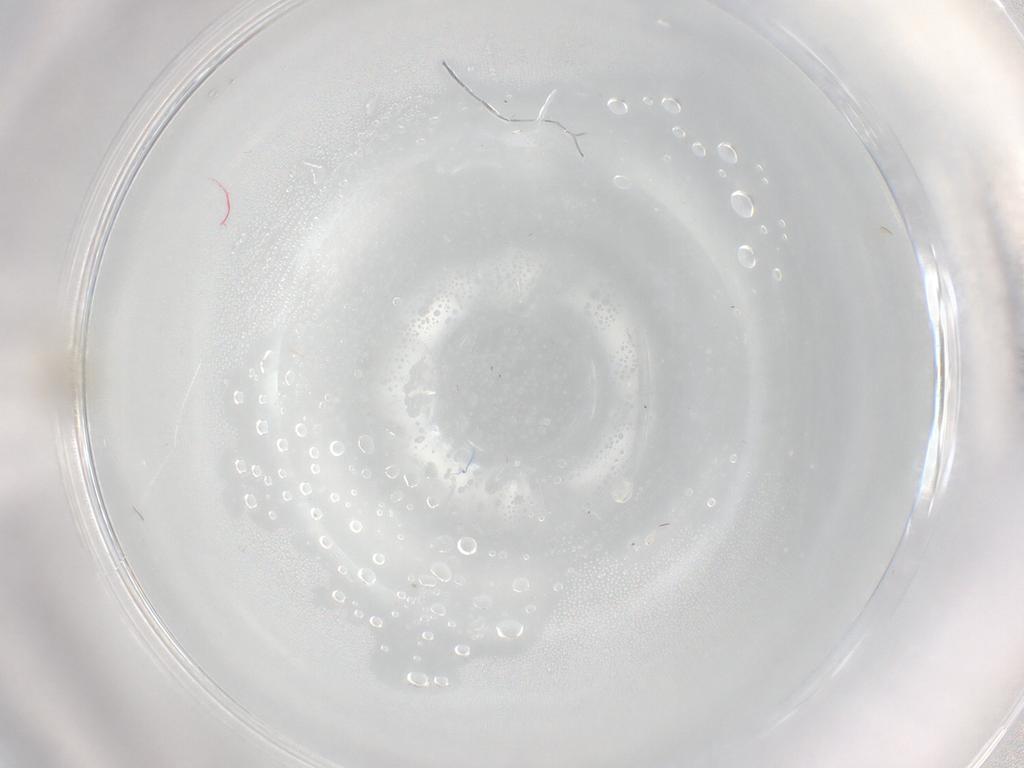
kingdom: Animalia
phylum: Arthropoda
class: Insecta
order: Diptera
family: Cecidomyiidae
